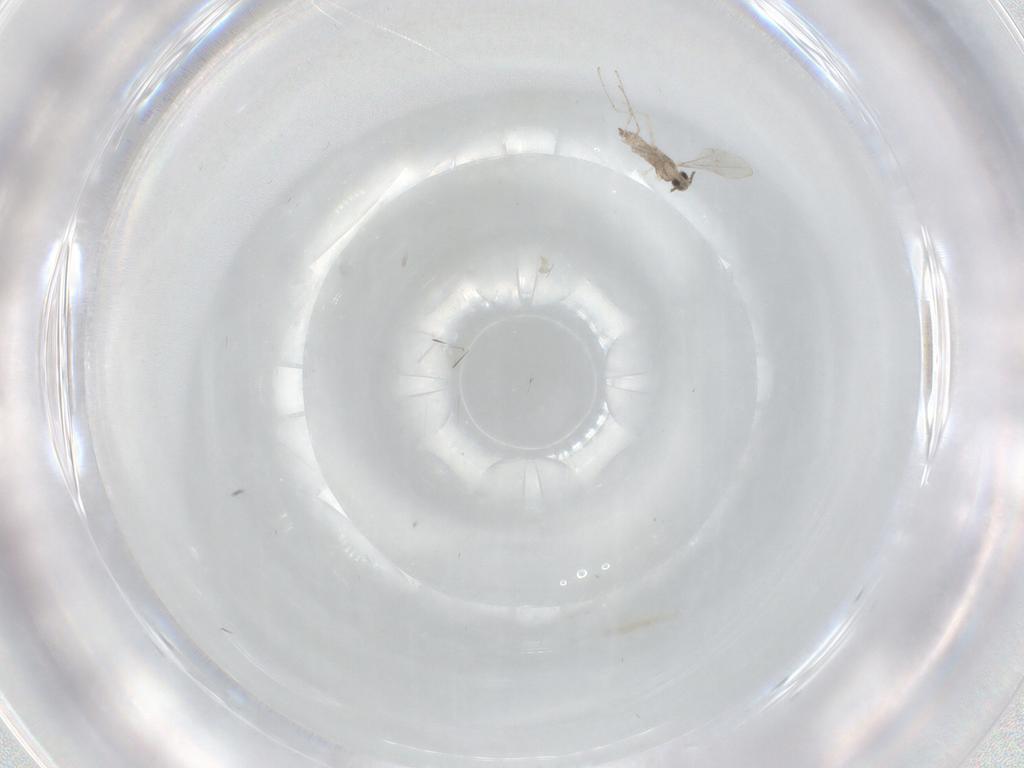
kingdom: Animalia
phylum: Arthropoda
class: Insecta
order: Diptera
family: Cecidomyiidae
